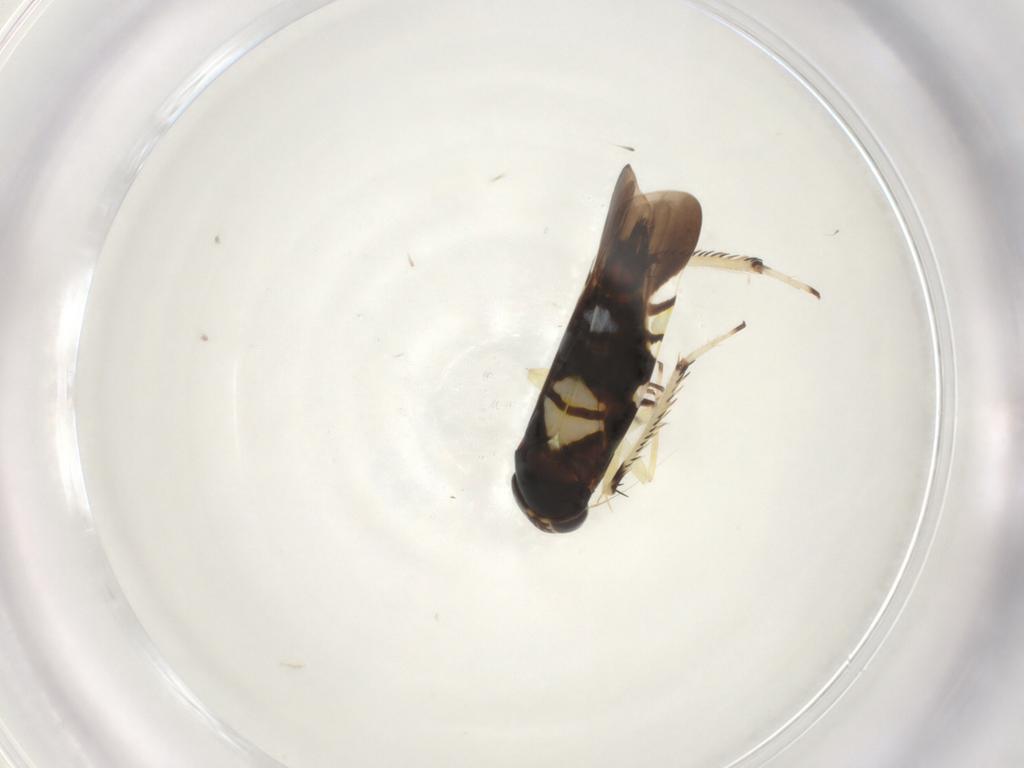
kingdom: Animalia
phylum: Arthropoda
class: Insecta
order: Hemiptera
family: Cicadellidae
